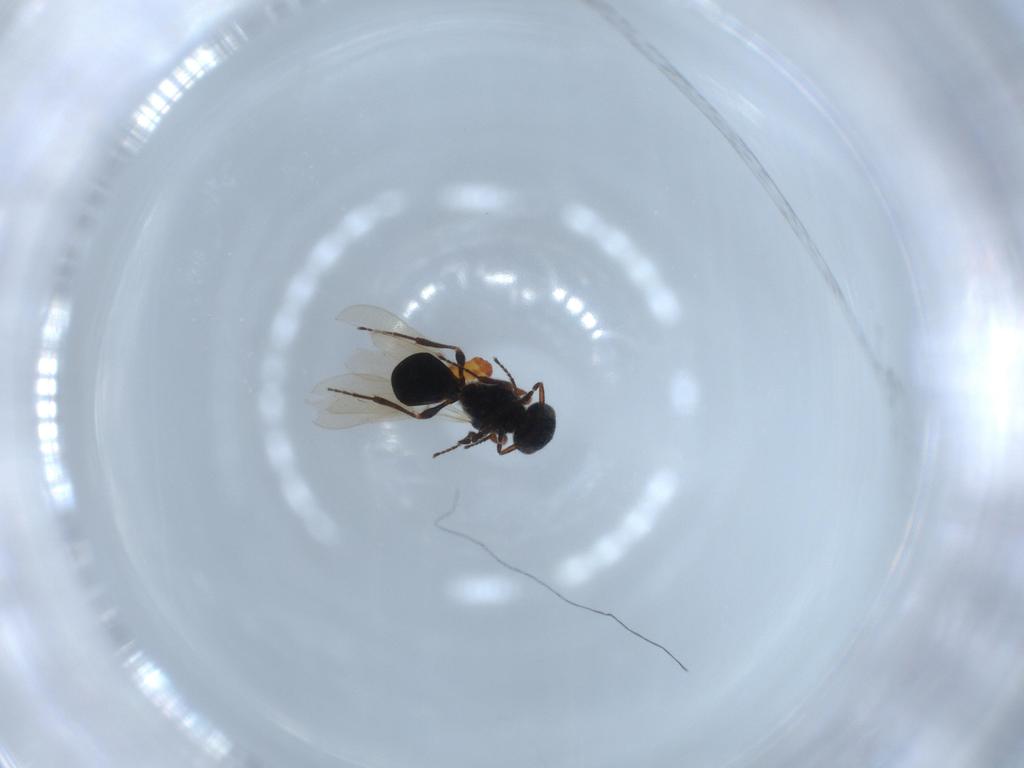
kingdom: Animalia
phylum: Arthropoda
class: Insecta
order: Hymenoptera
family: Platygastridae
